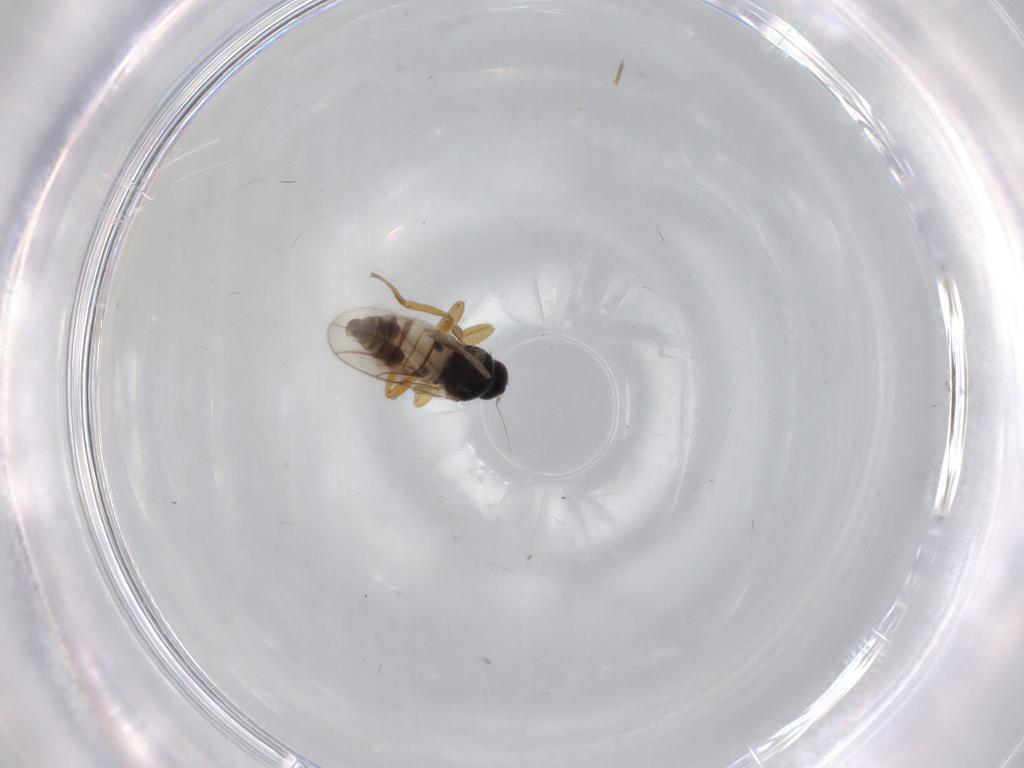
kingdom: Animalia
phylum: Arthropoda
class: Insecta
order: Diptera
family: Hybotidae
